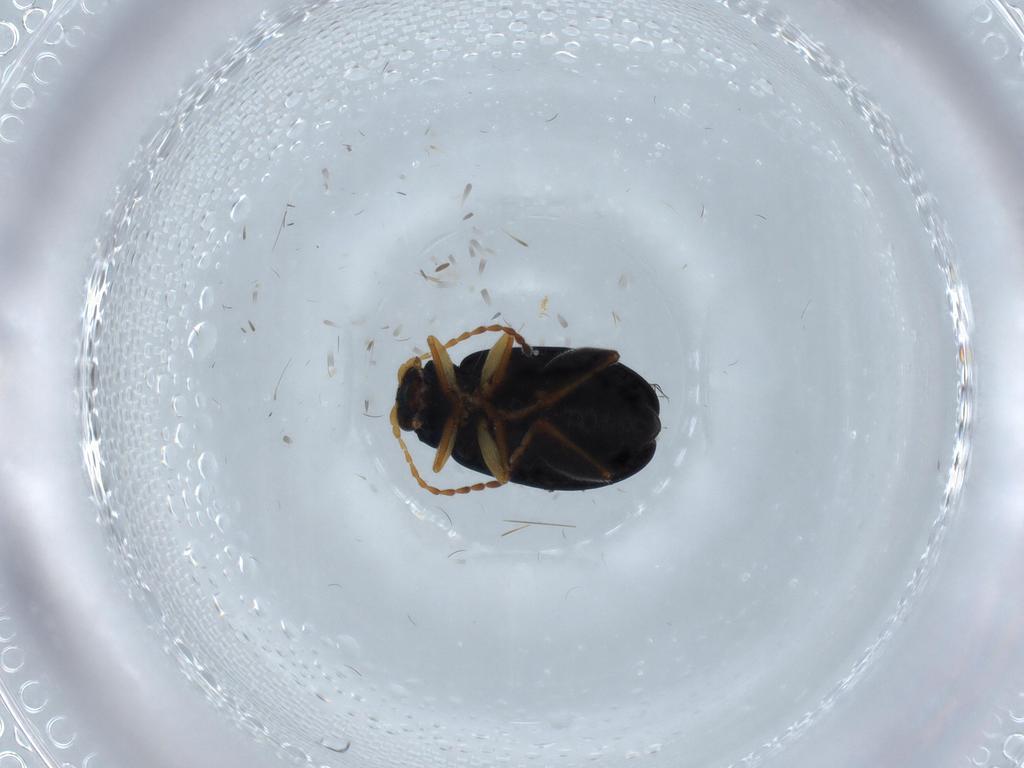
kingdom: Animalia
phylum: Arthropoda
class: Insecta
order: Coleoptera
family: Chrysomelidae
